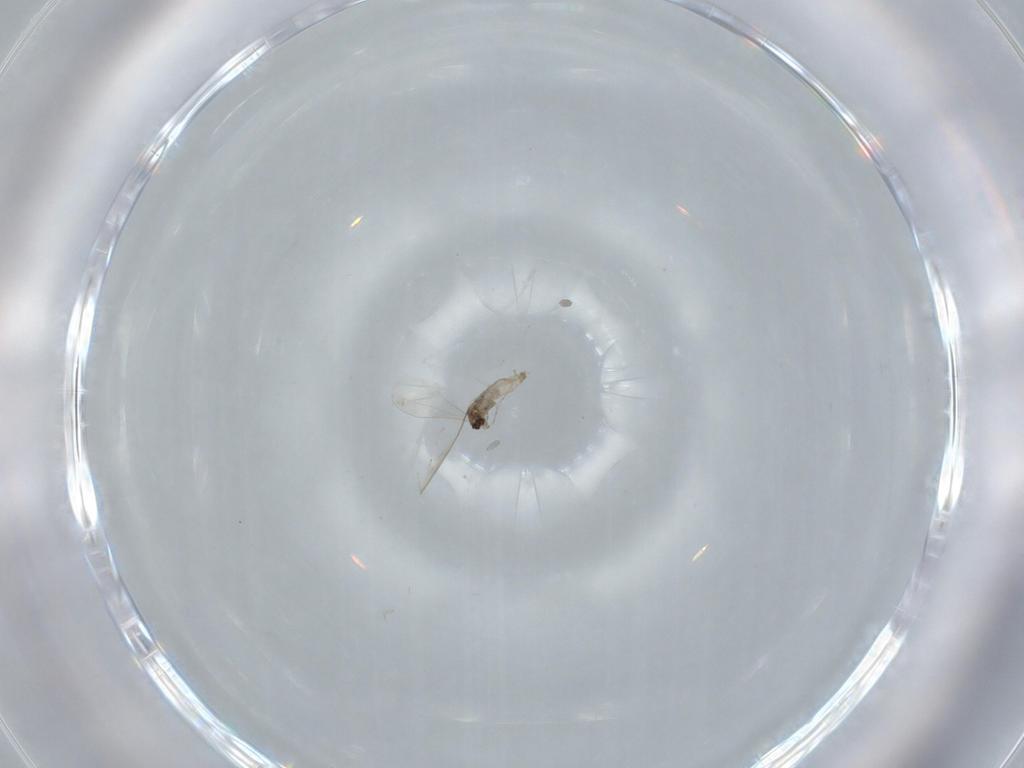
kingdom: Animalia
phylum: Arthropoda
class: Insecta
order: Diptera
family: Cecidomyiidae
